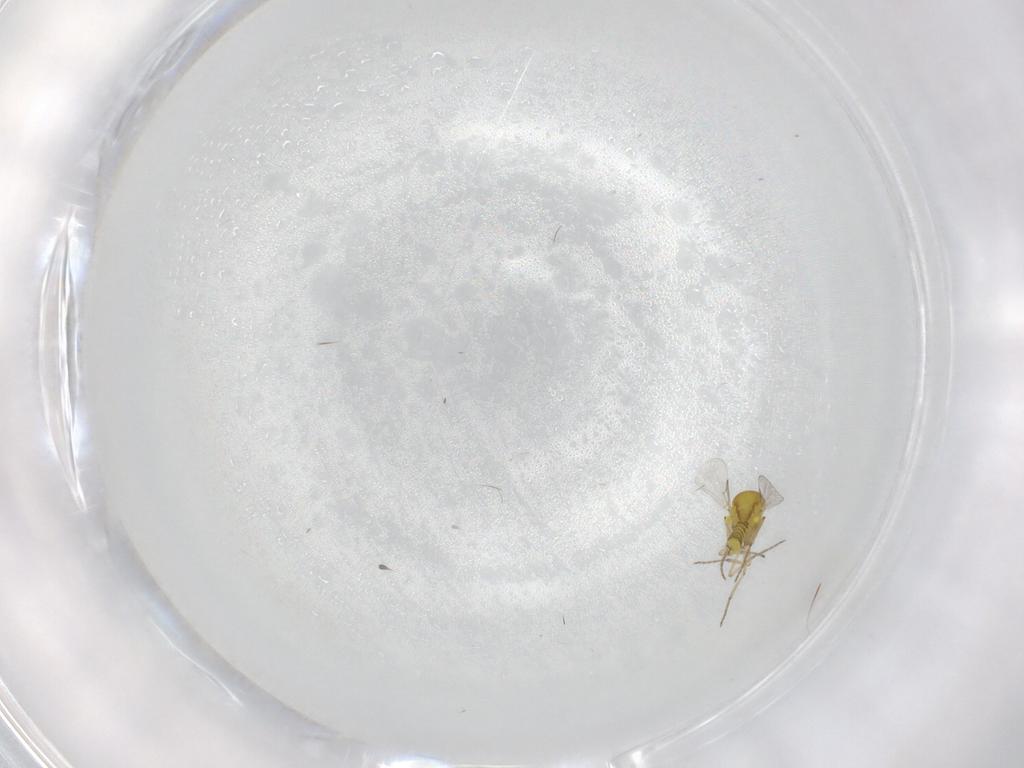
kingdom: Animalia
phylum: Arthropoda
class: Insecta
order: Diptera
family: Ceratopogonidae
